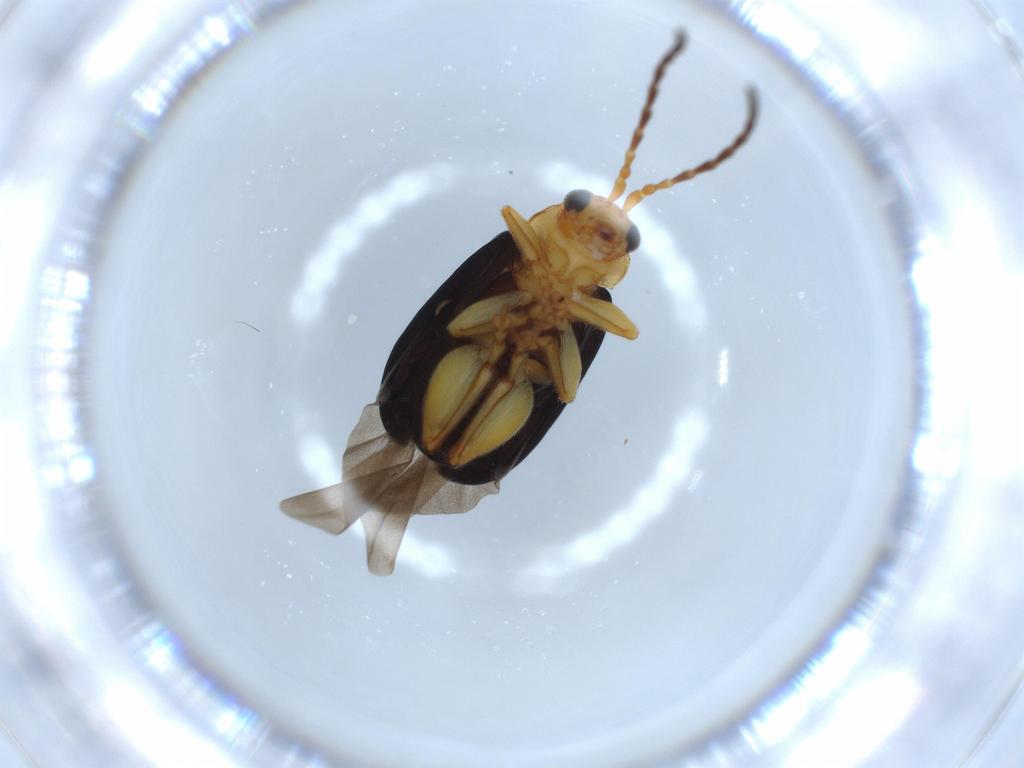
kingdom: Animalia
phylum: Arthropoda
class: Insecta
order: Coleoptera
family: Chrysomelidae
